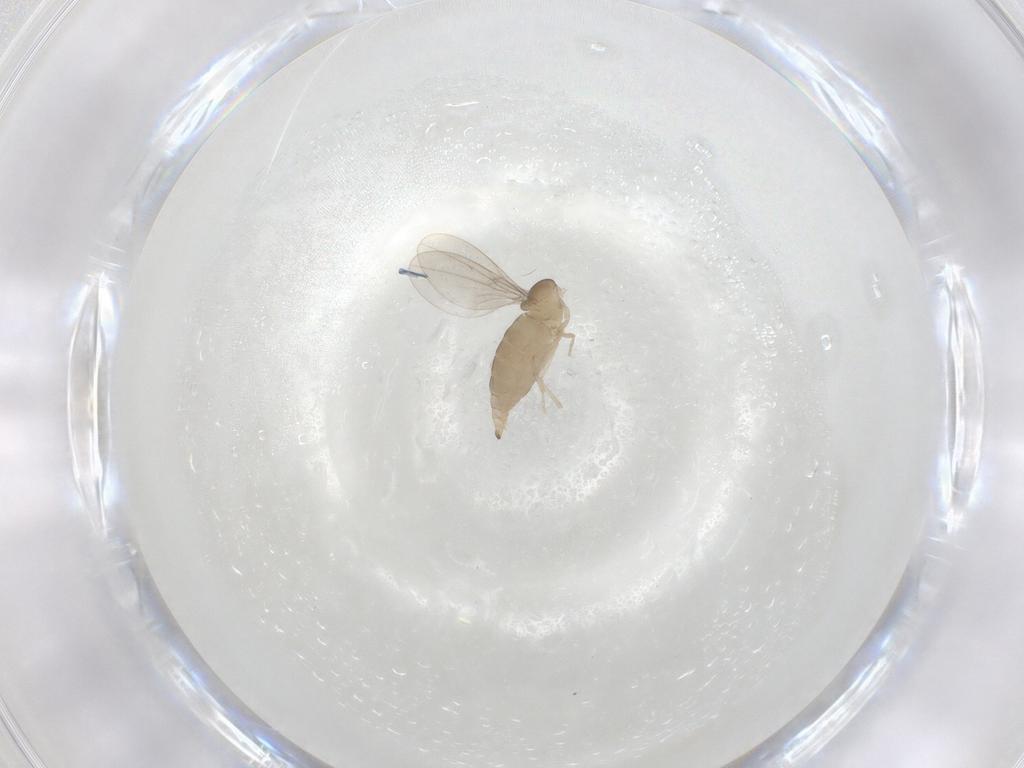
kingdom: Animalia
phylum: Arthropoda
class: Insecta
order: Diptera
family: Cecidomyiidae
